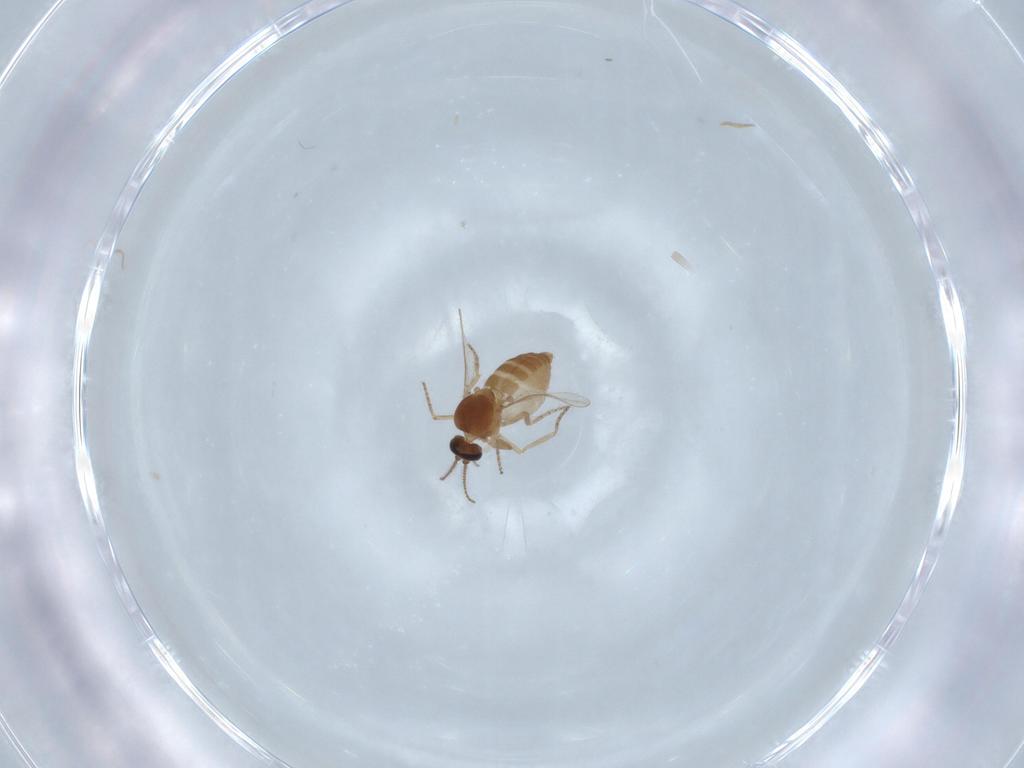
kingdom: Animalia
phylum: Arthropoda
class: Insecta
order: Diptera
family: Ceratopogonidae
